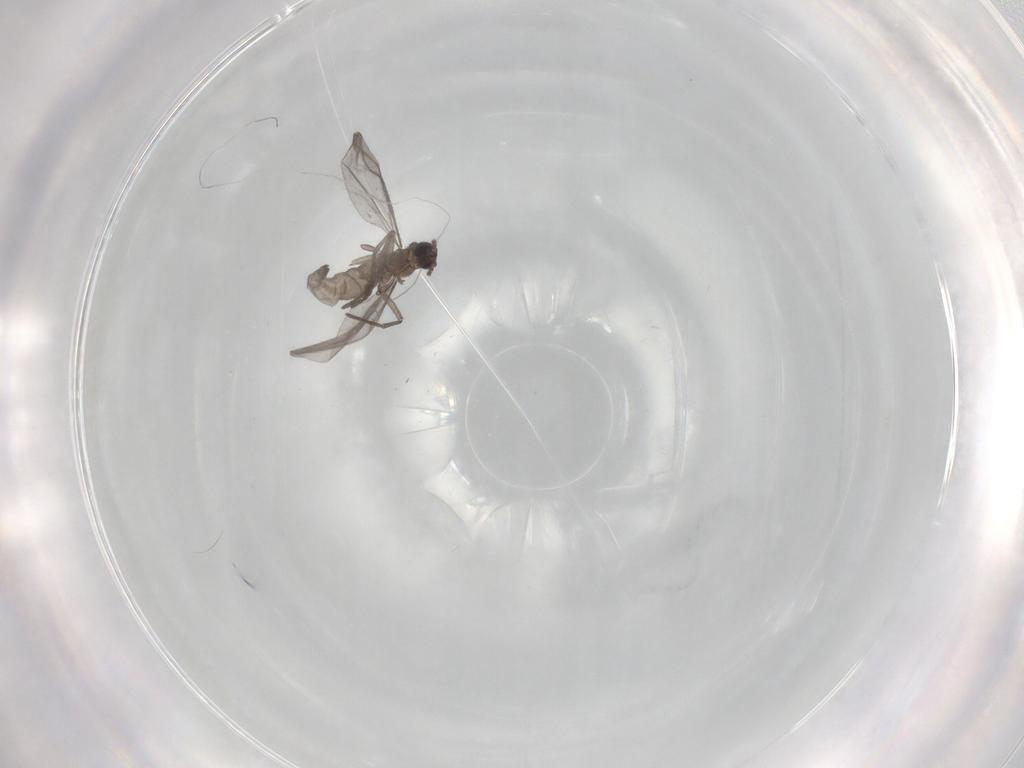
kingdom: Animalia
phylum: Arthropoda
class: Insecta
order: Diptera
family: Sciaridae
